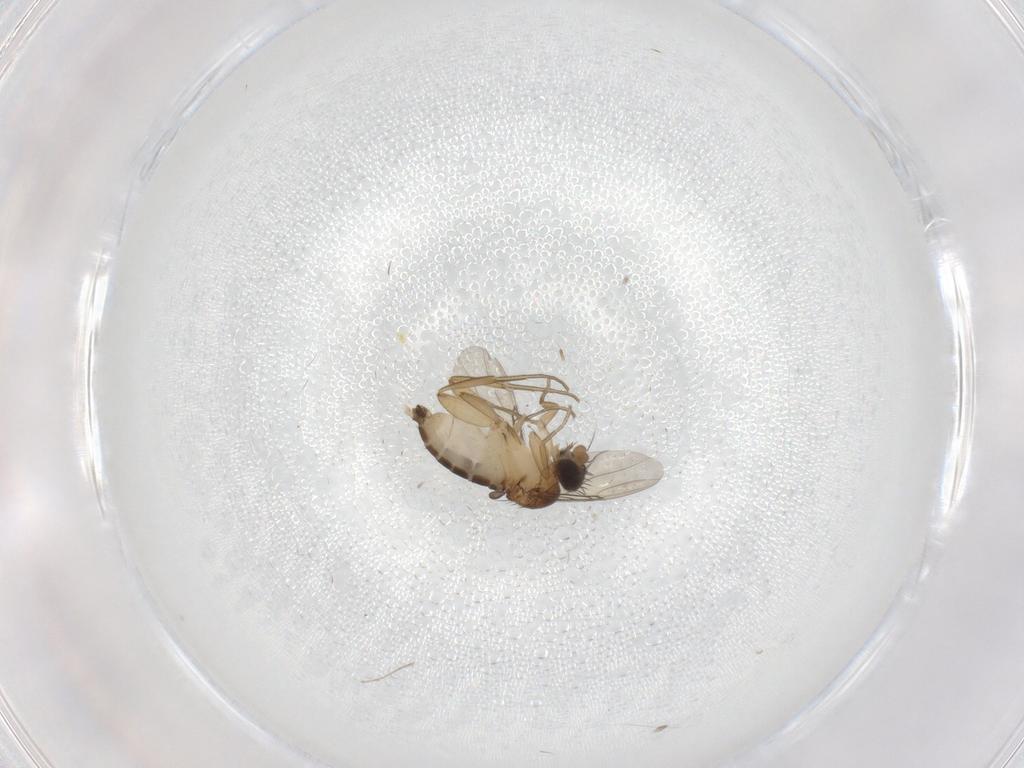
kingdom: Animalia
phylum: Arthropoda
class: Insecta
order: Diptera
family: Phoridae
